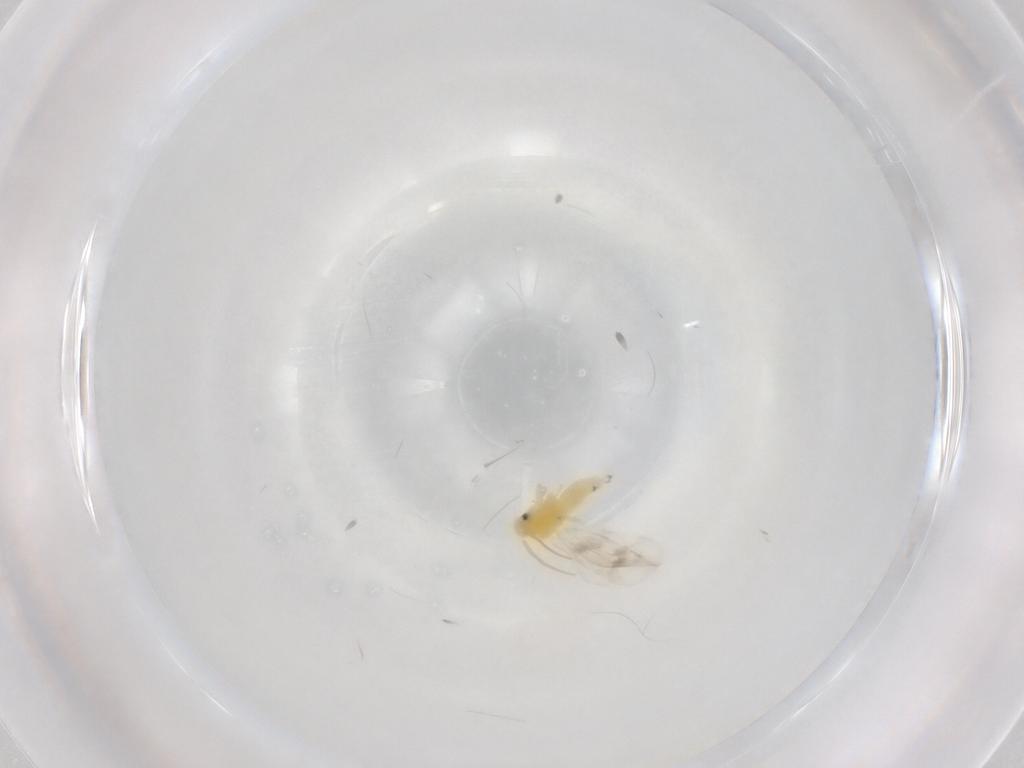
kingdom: Animalia
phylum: Arthropoda
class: Insecta
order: Hemiptera
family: Aleyrodidae
